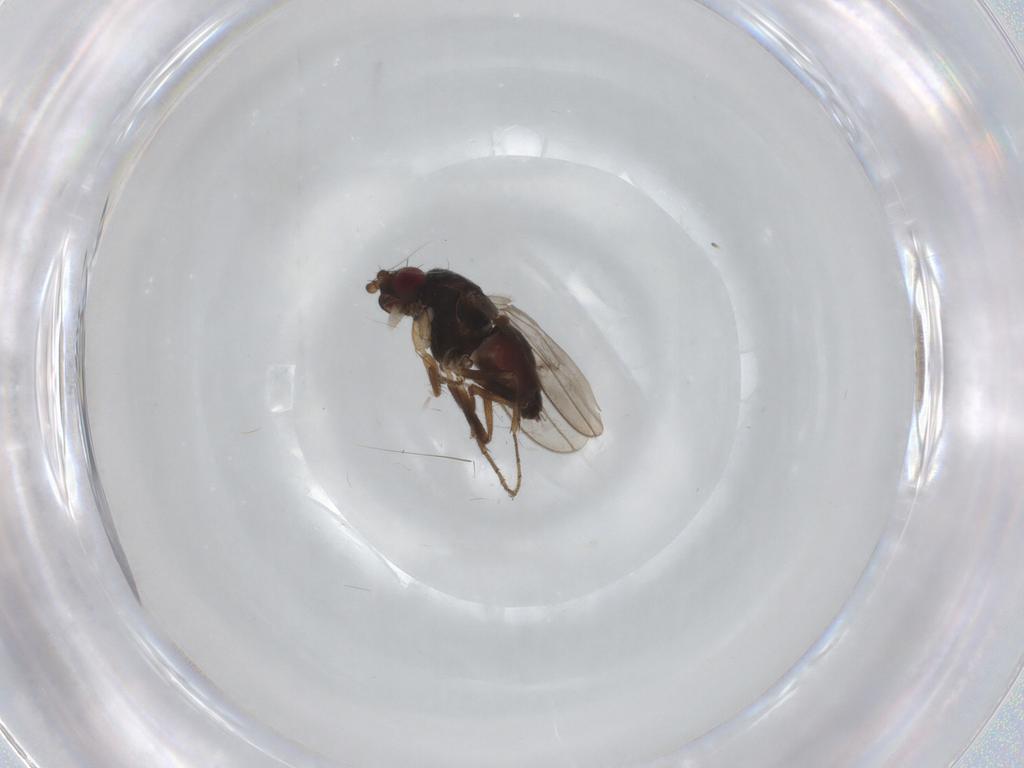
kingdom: Animalia
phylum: Arthropoda
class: Insecta
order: Diptera
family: Sphaeroceridae
